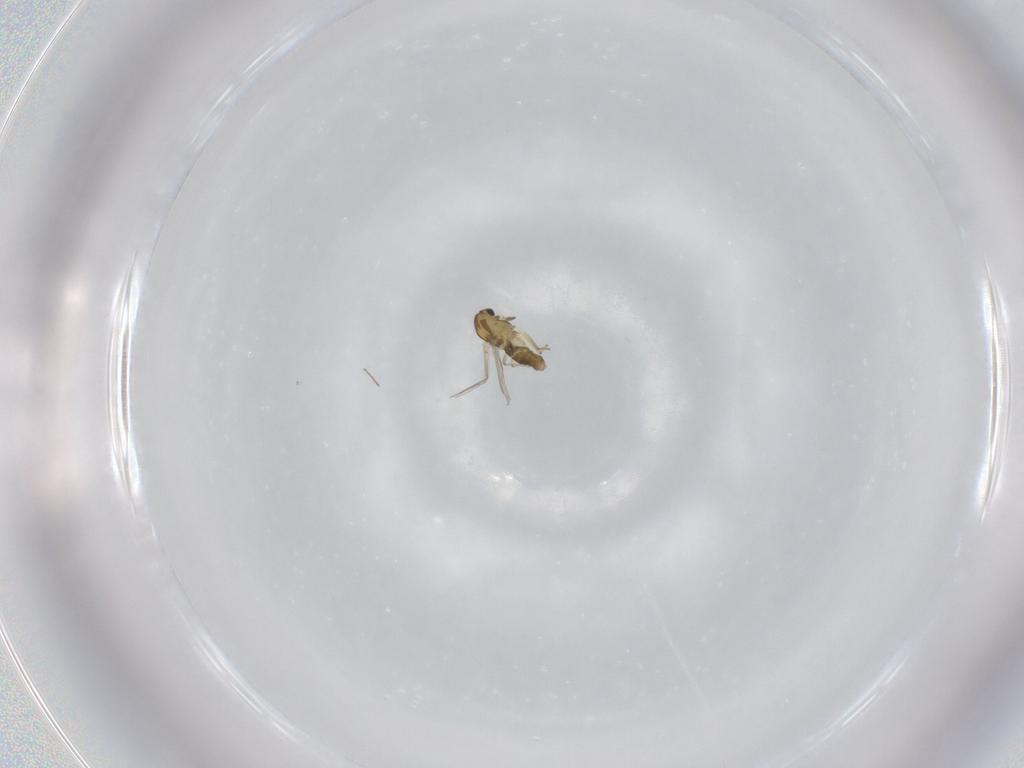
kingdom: Animalia
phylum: Arthropoda
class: Insecta
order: Diptera
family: Chironomidae
